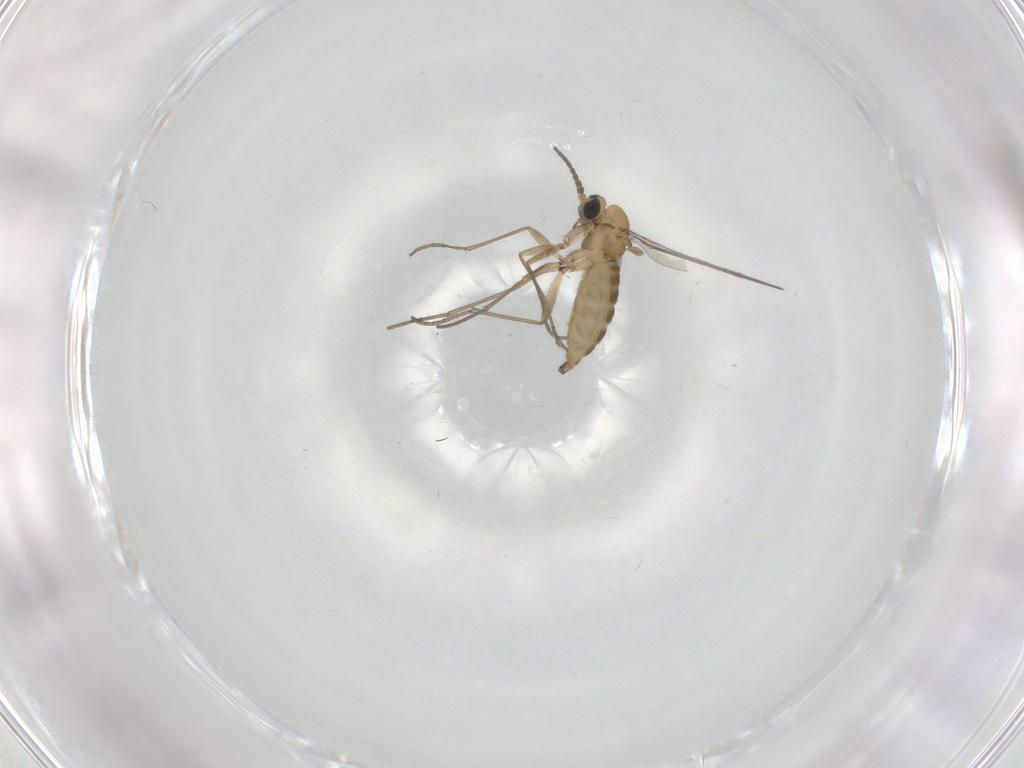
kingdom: Animalia
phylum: Arthropoda
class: Insecta
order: Diptera
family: Sciaridae
